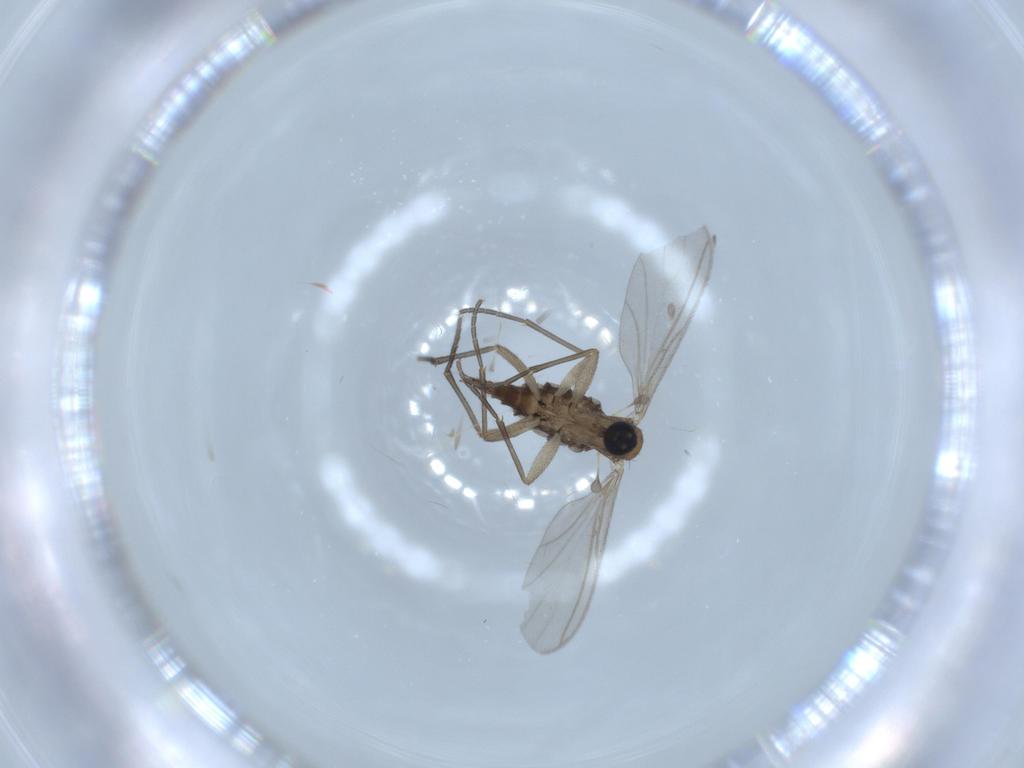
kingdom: Animalia
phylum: Arthropoda
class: Insecta
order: Diptera
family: Sciaridae
